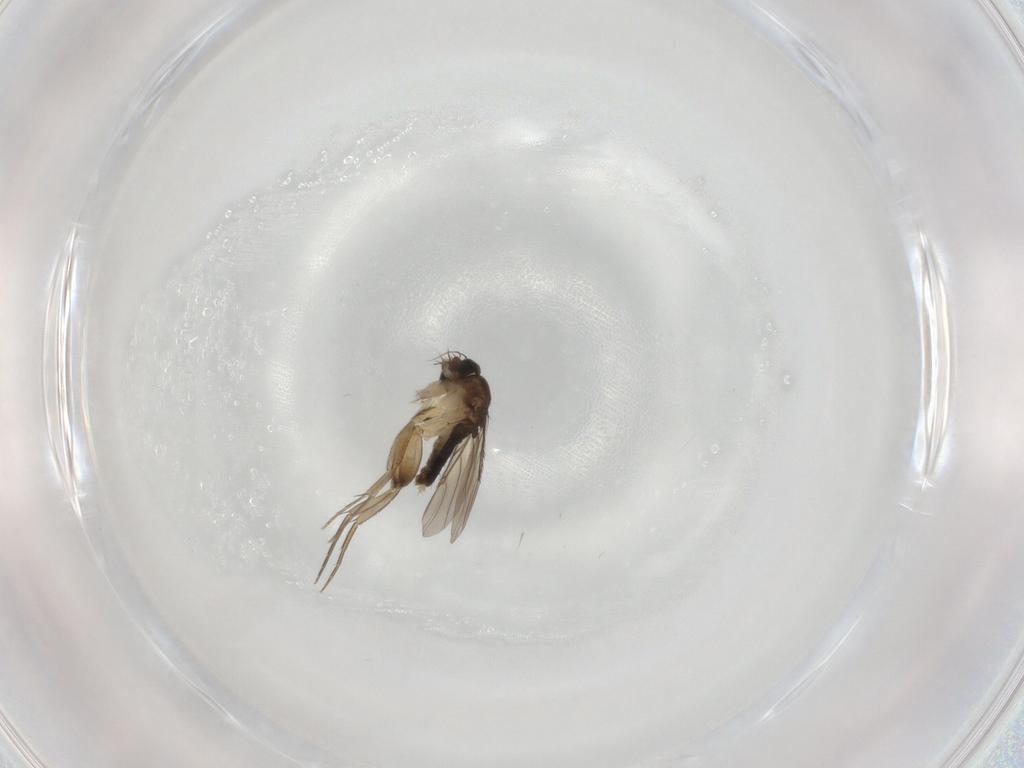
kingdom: Animalia
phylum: Arthropoda
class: Insecta
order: Diptera
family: Phoridae
